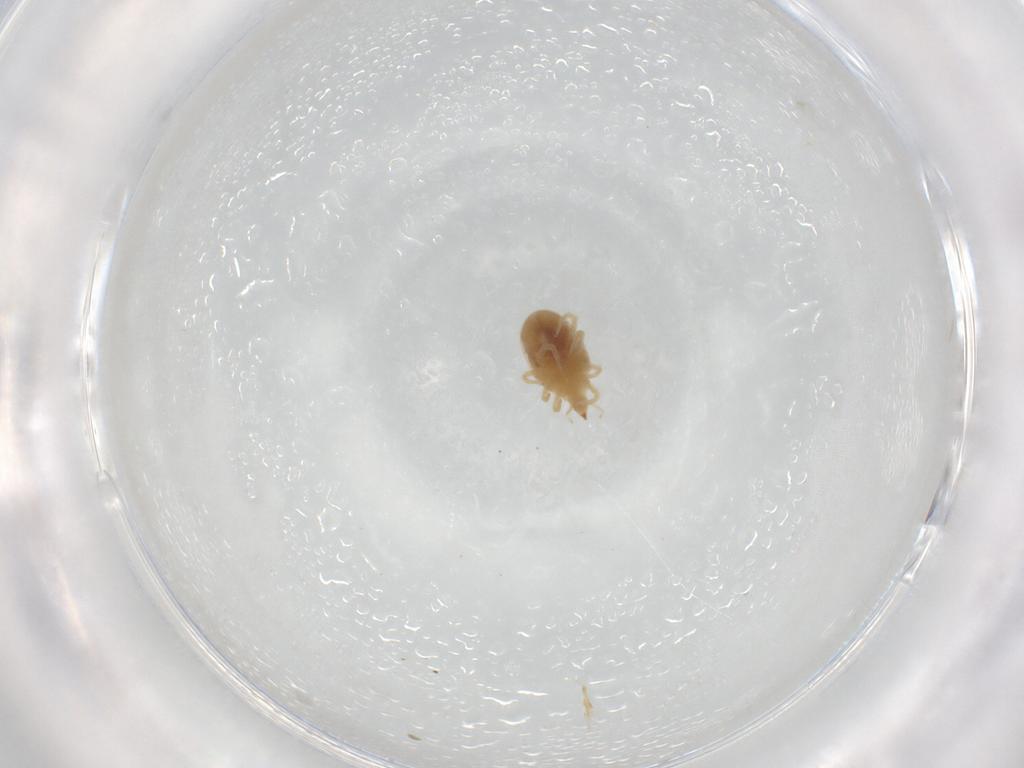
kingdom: Animalia
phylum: Arthropoda
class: Arachnida
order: Trombidiformes
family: Bdellidae
